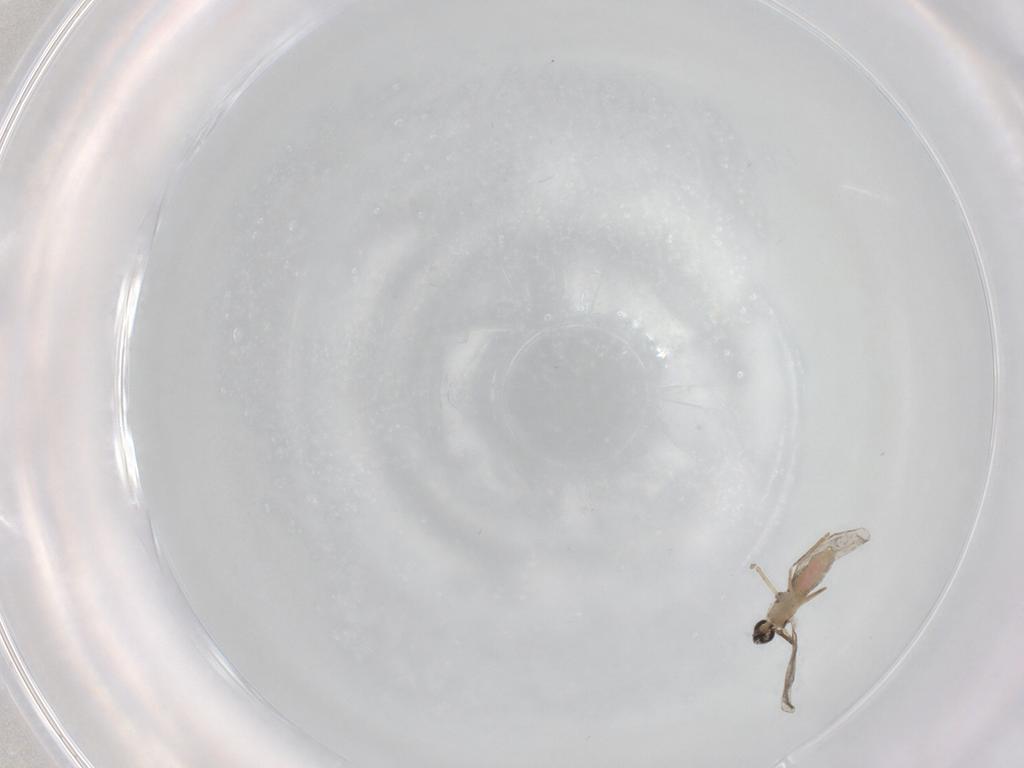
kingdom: Animalia
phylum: Arthropoda
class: Insecta
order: Diptera
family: Cecidomyiidae
